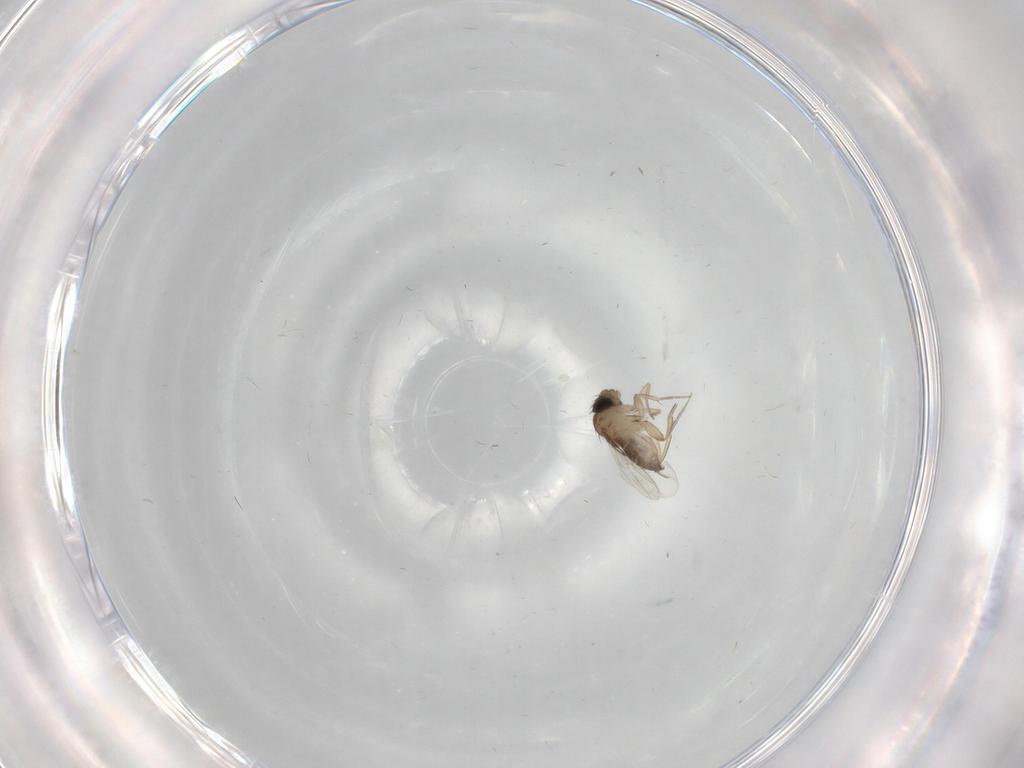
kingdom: Animalia
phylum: Arthropoda
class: Insecta
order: Diptera
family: Phoridae
